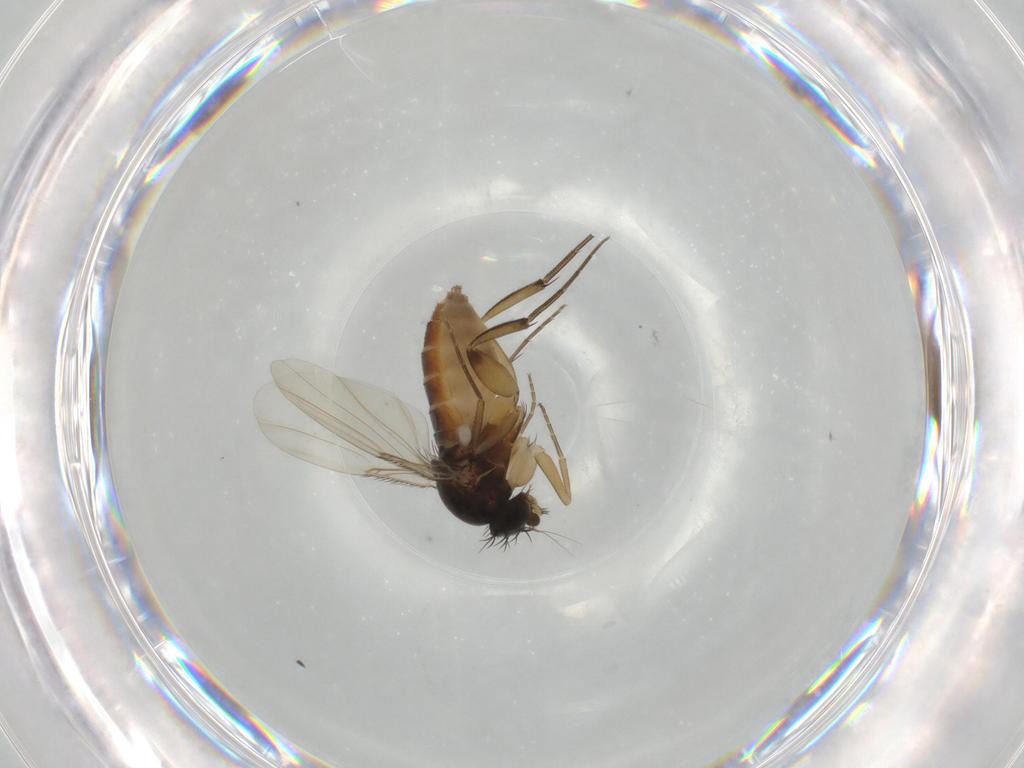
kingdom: Animalia
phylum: Arthropoda
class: Insecta
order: Diptera
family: Phoridae
